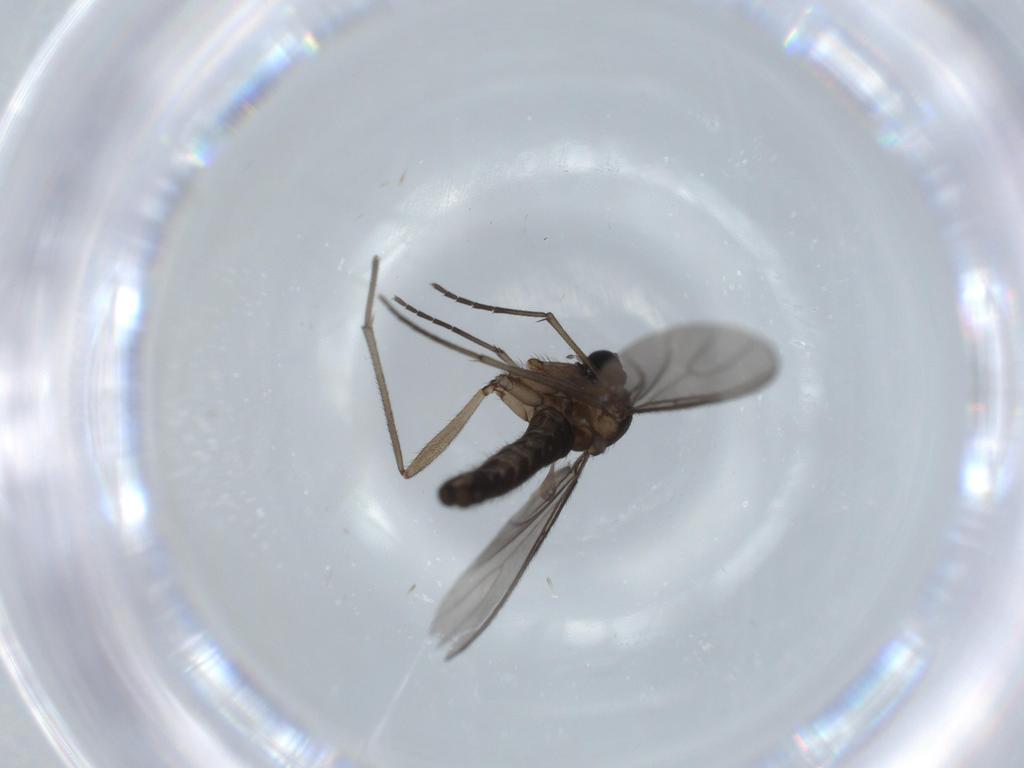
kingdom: Animalia
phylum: Arthropoda
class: Insecta
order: Diptera
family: Sciaridae
